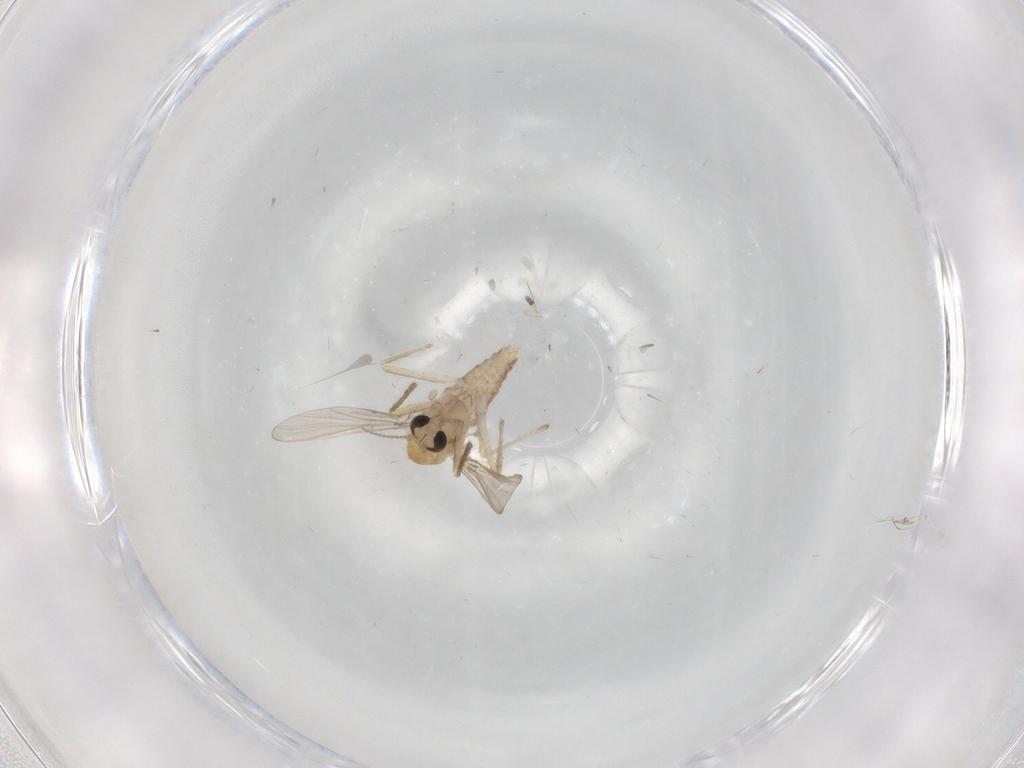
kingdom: Animalia
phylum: Arthropoda
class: Insecta
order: Diptera
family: Chironomidae
